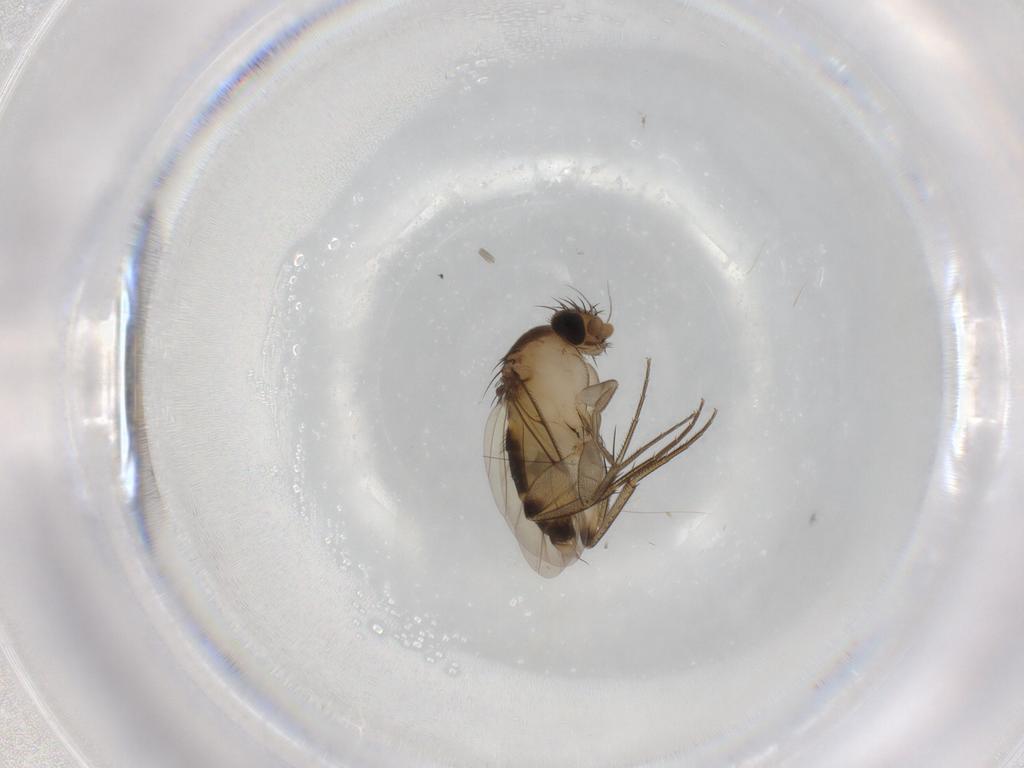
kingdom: Animalia
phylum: Arthropoda
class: Insecta
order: Diptera
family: Phoridae
